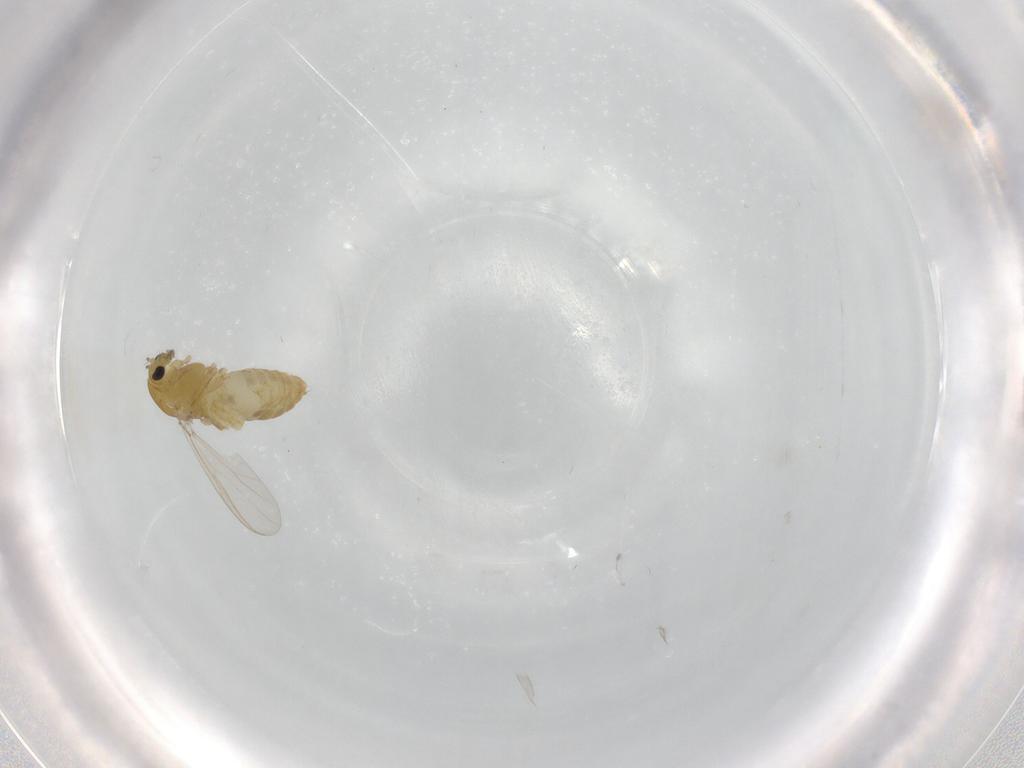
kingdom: Animalia
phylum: Arthropoda
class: Insecta
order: Diptera
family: Chironomidae
